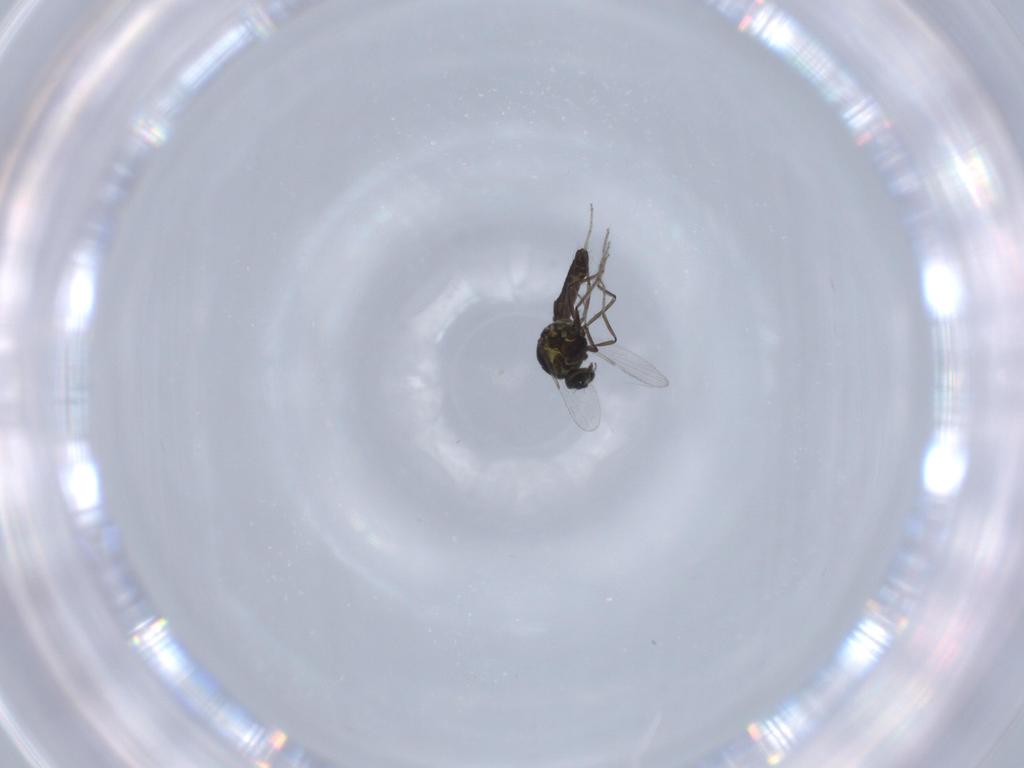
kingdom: Animalia
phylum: Arthropoda
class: Insecta
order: Diptera
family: Ceratopogonidae
